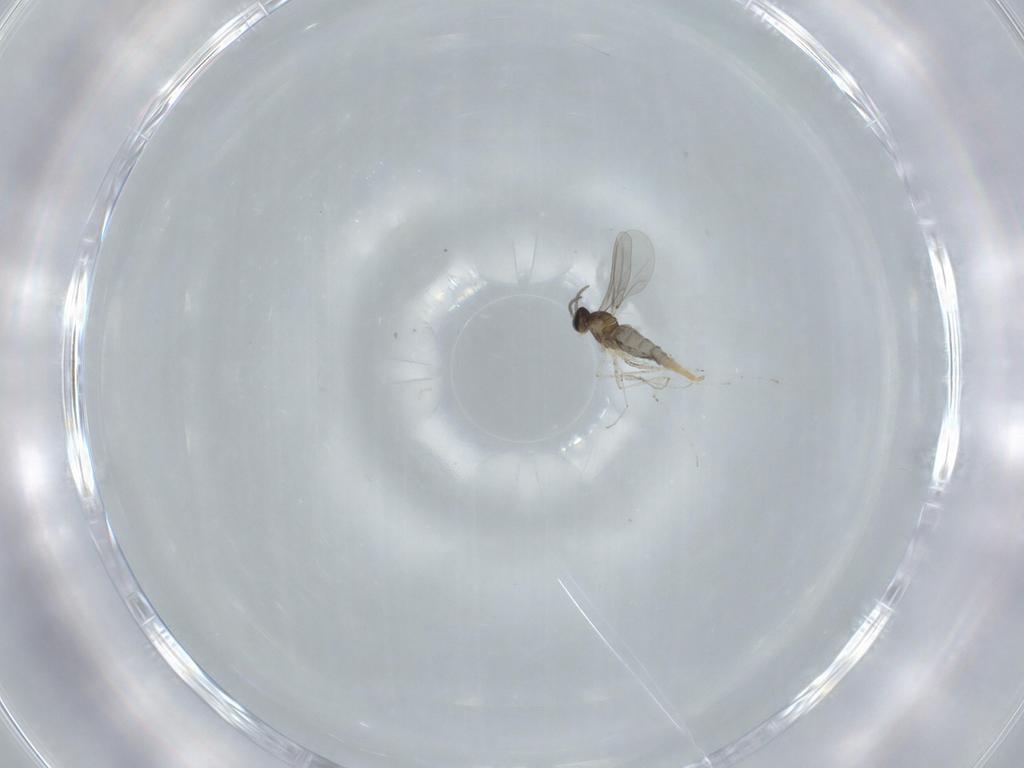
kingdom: Animalia
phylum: Arthropoda
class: Insecta
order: Diptera
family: Cecidomyiidae
